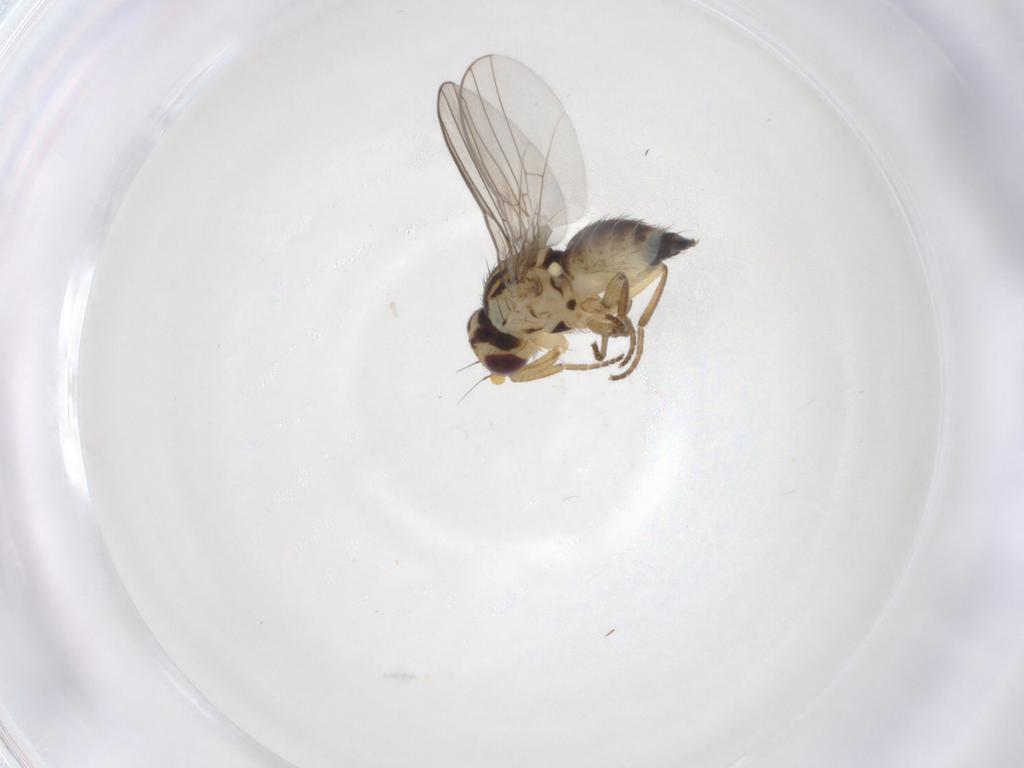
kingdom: Animalia
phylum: Arthropoda
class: Insecta
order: Diptera
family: Agromyzidae
